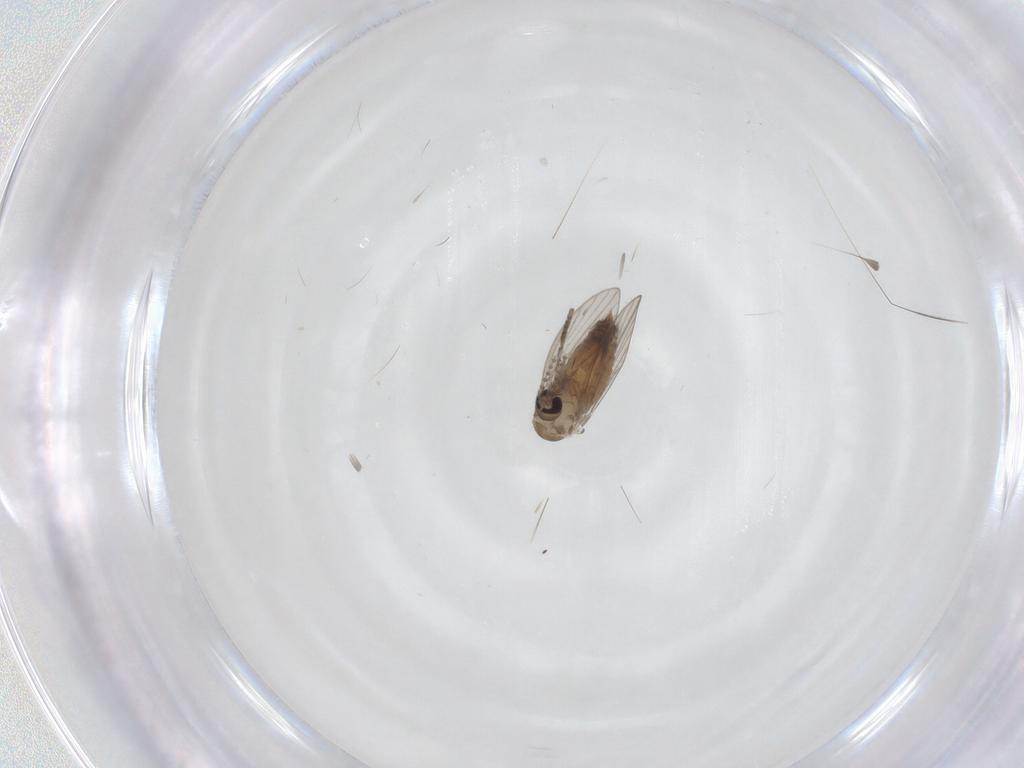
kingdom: Animalia
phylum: Arthropoda
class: Insecta
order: Diptera
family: Psychodidae
